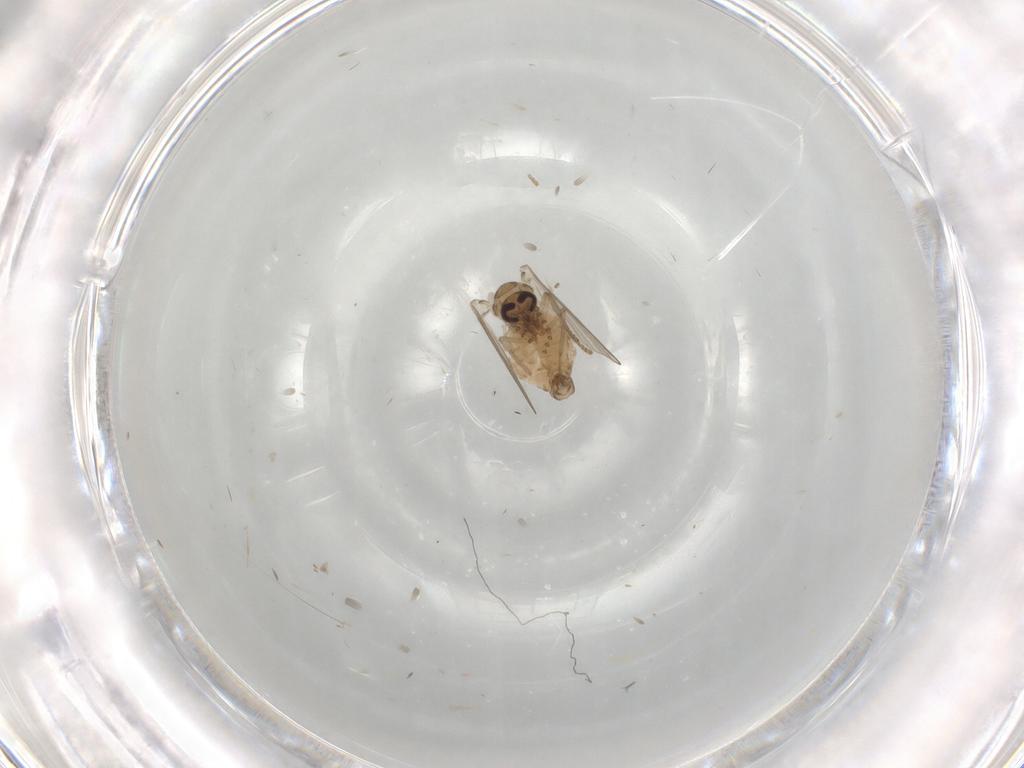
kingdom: Animalia
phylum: Arthropoda
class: Insecta
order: Diptera
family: Psychodidae
